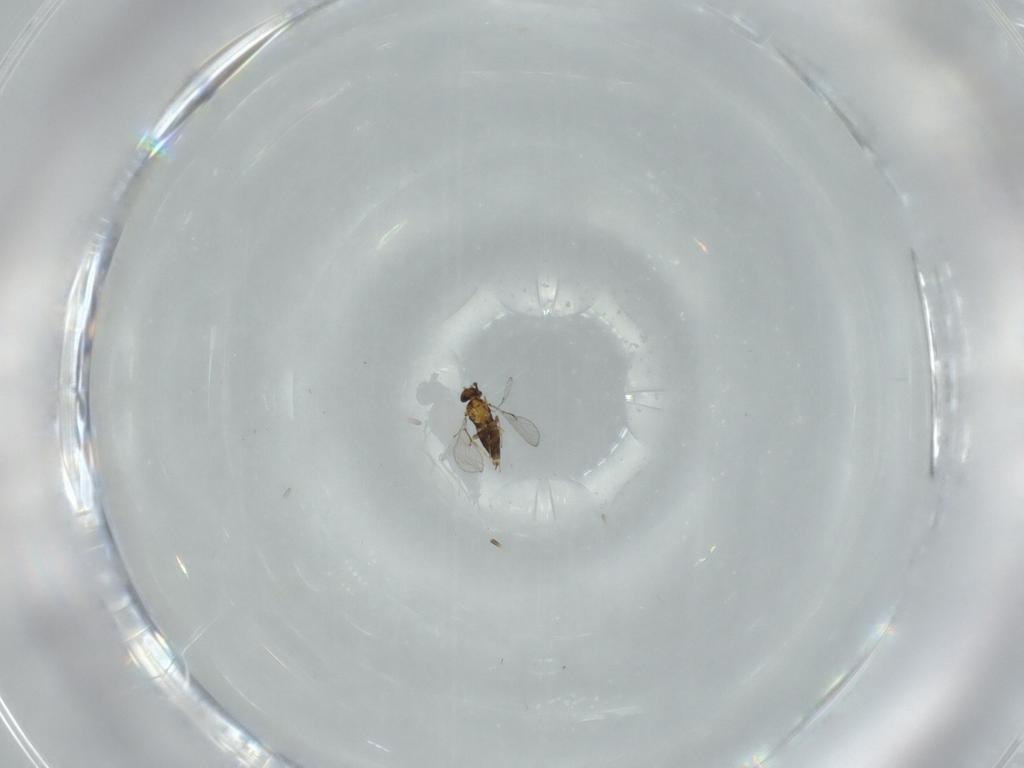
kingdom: Animalia
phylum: Arthropoda
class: Insecta
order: Hymenoptera
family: Trichogrammatidae
